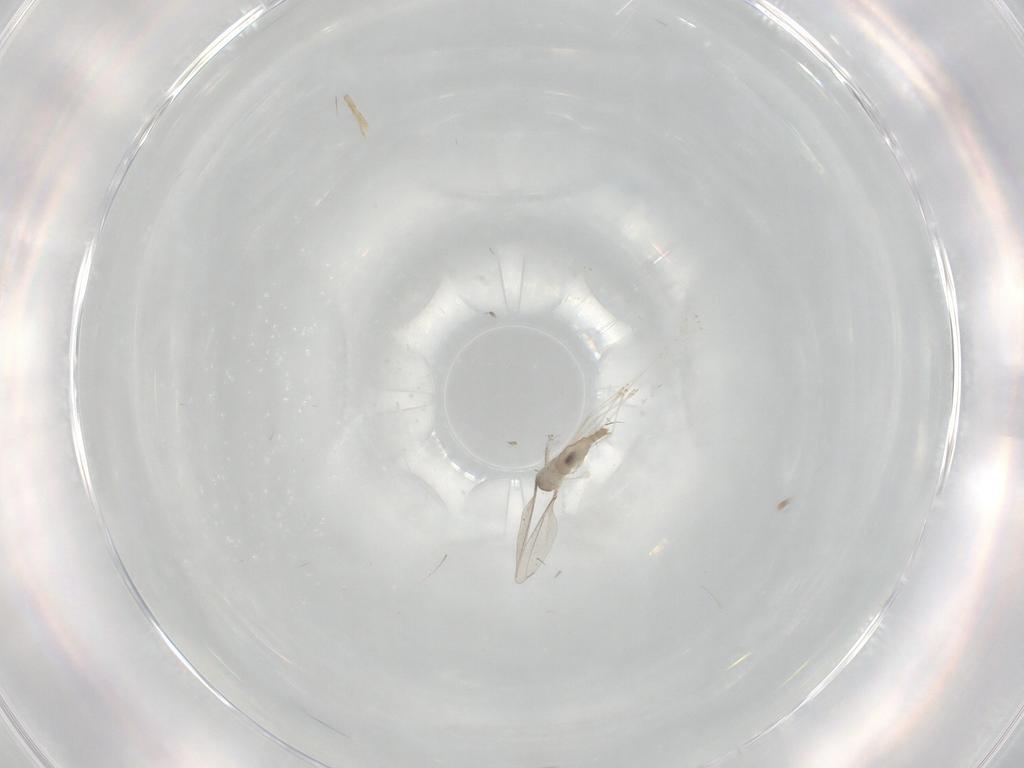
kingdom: Animalia
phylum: Arthropoda
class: Insecta
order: Diptera
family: Cecidomyiidae
